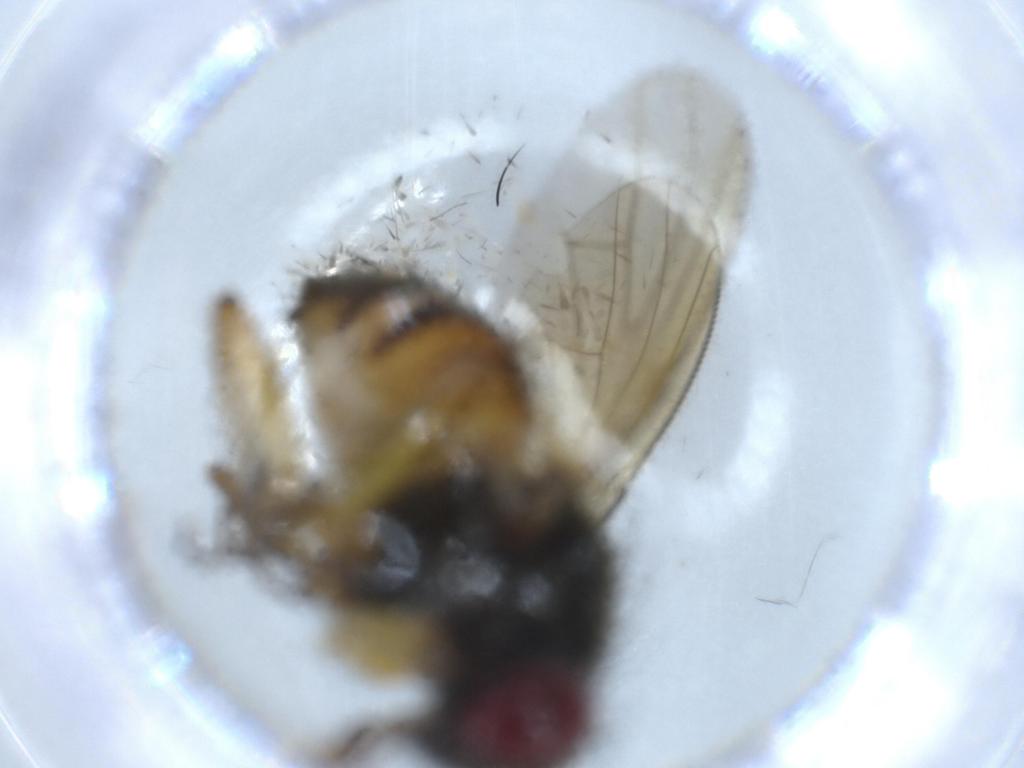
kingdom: Animalia
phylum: Arthropoda
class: Insecta
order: Diptera
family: Muscidae
